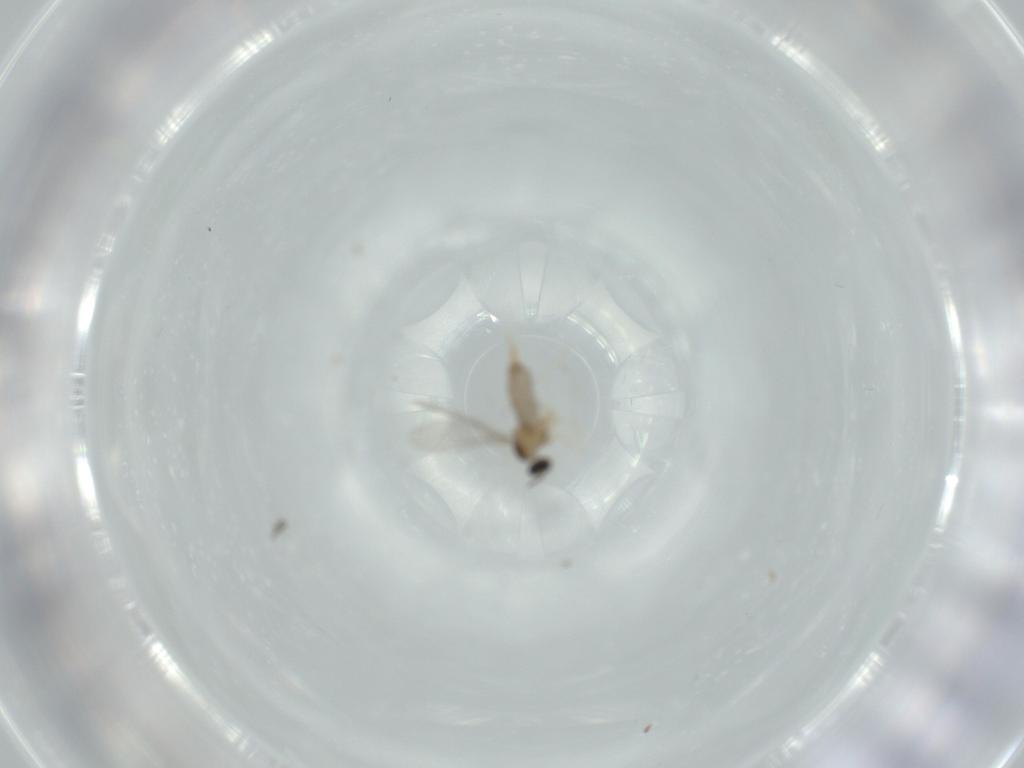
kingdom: Animalia
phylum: Arthropoda
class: Insecta
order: Diptera
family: Cecidomyiidae
